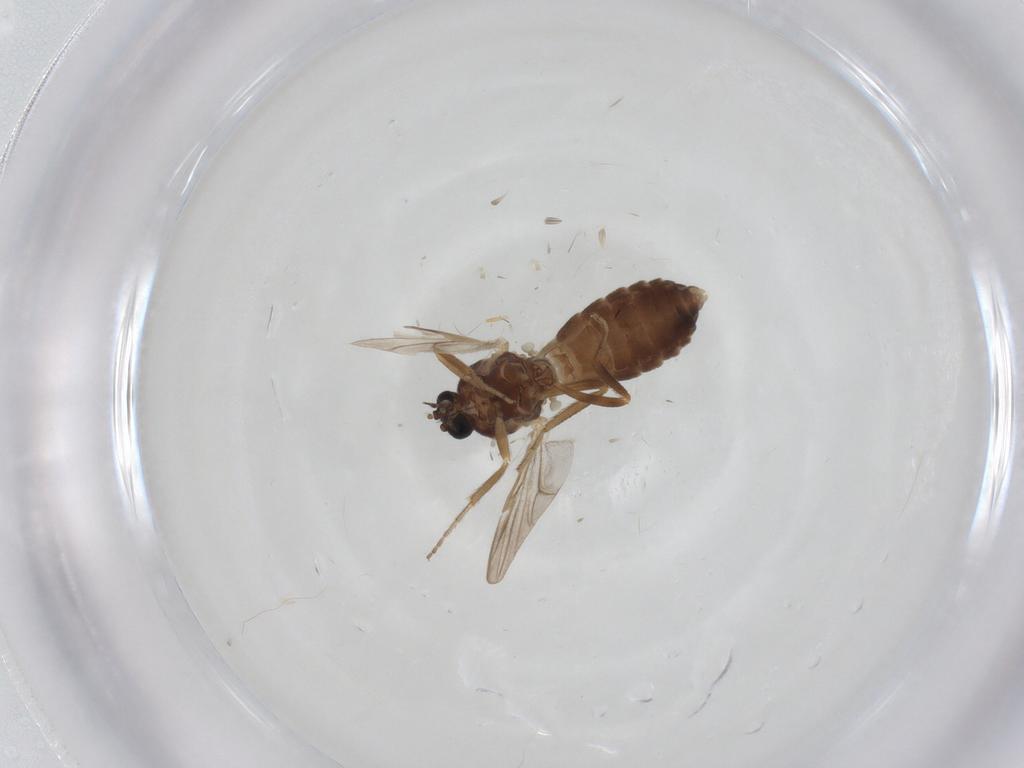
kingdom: Animalia
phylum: Arthropoda
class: Insecta
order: Diptera
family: Ceratopogonidae
